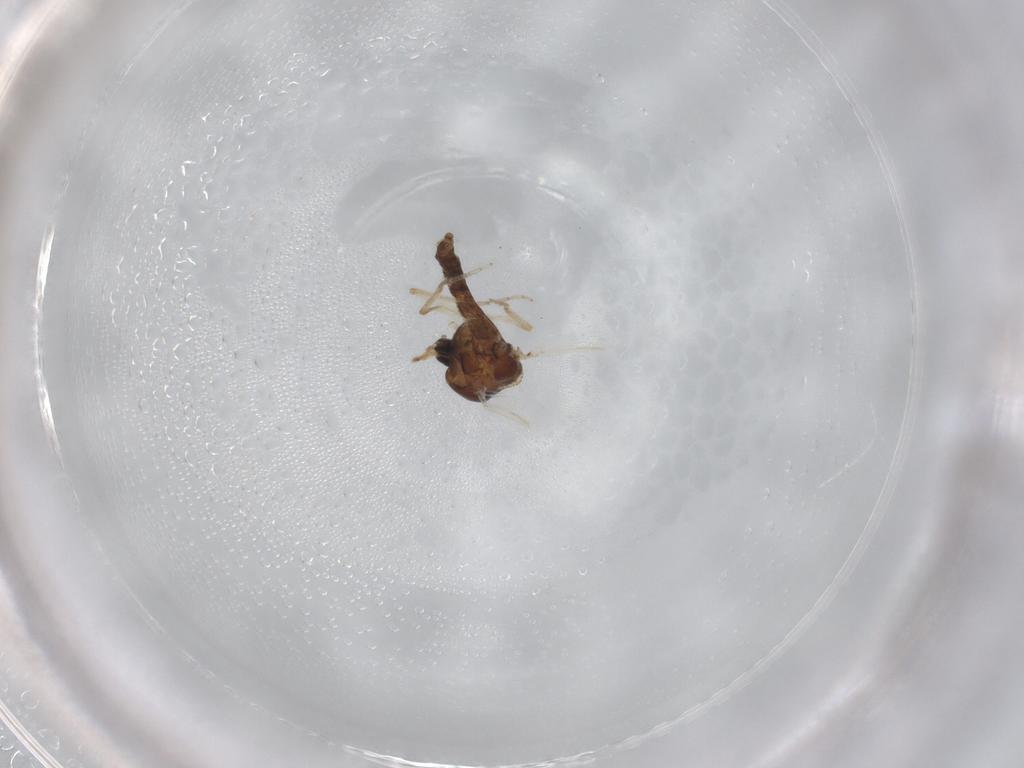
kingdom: Animalia
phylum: Arthropoda
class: Insecta
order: Diptera
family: Ceratopogonidae
